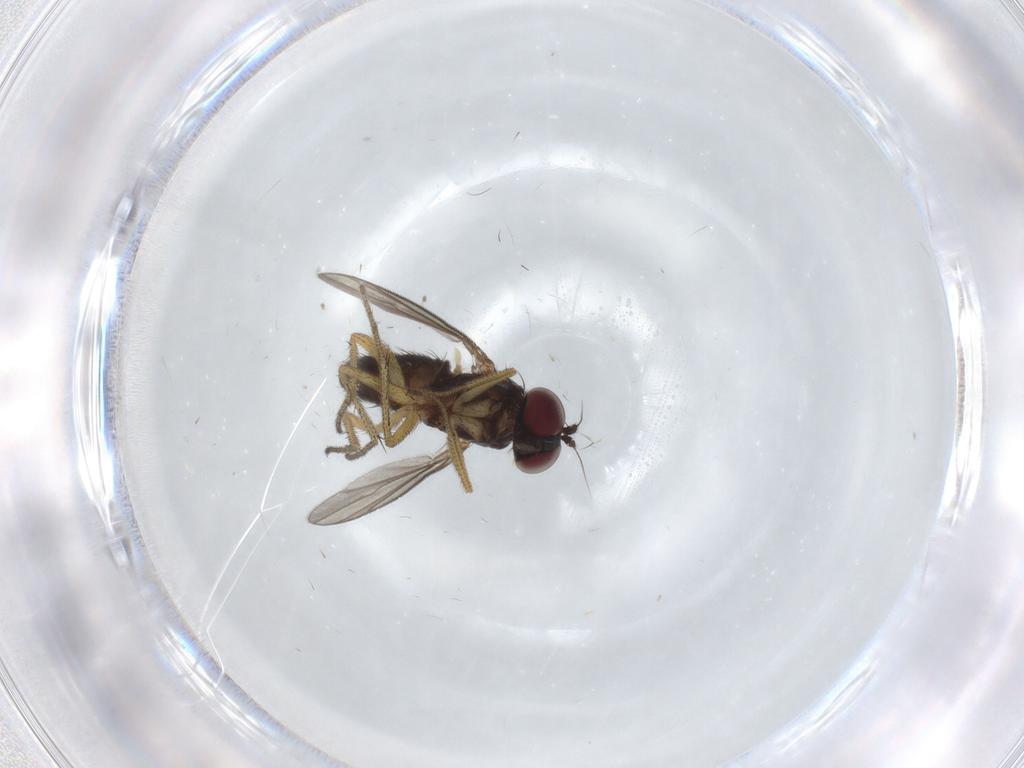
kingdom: Animalia
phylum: Arthropoda
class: Insecta
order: Diptera
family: Dolichopodidae
